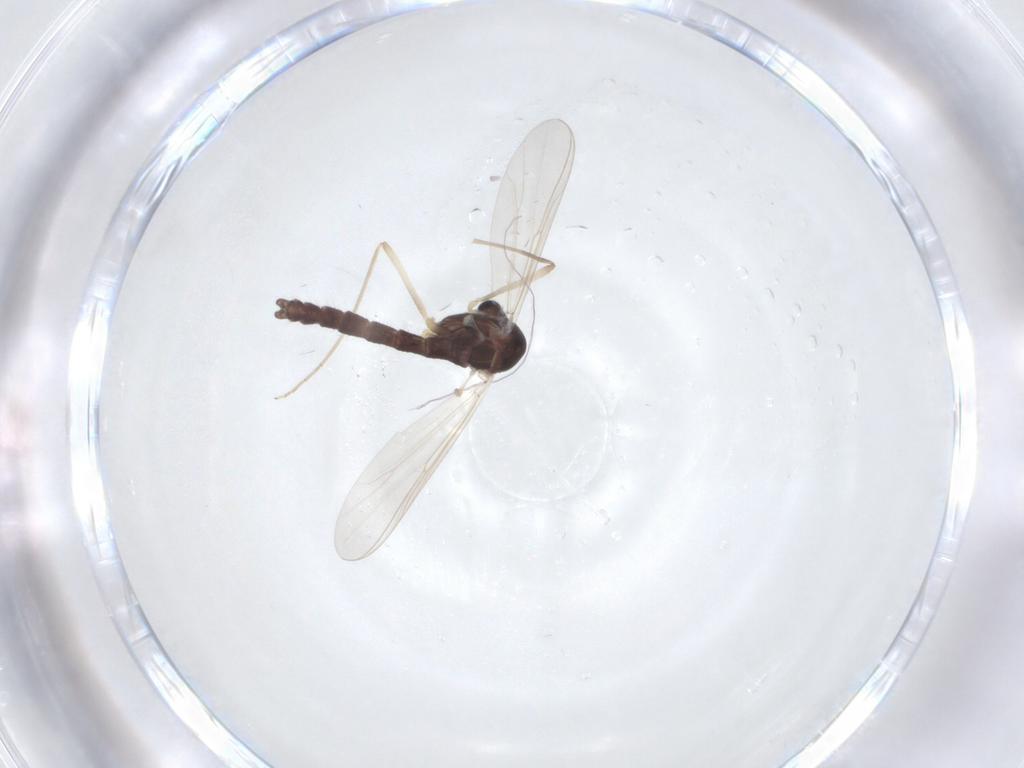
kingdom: Animalia
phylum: Arthropoda
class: Insecta
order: Diptera
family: Chironomidae
